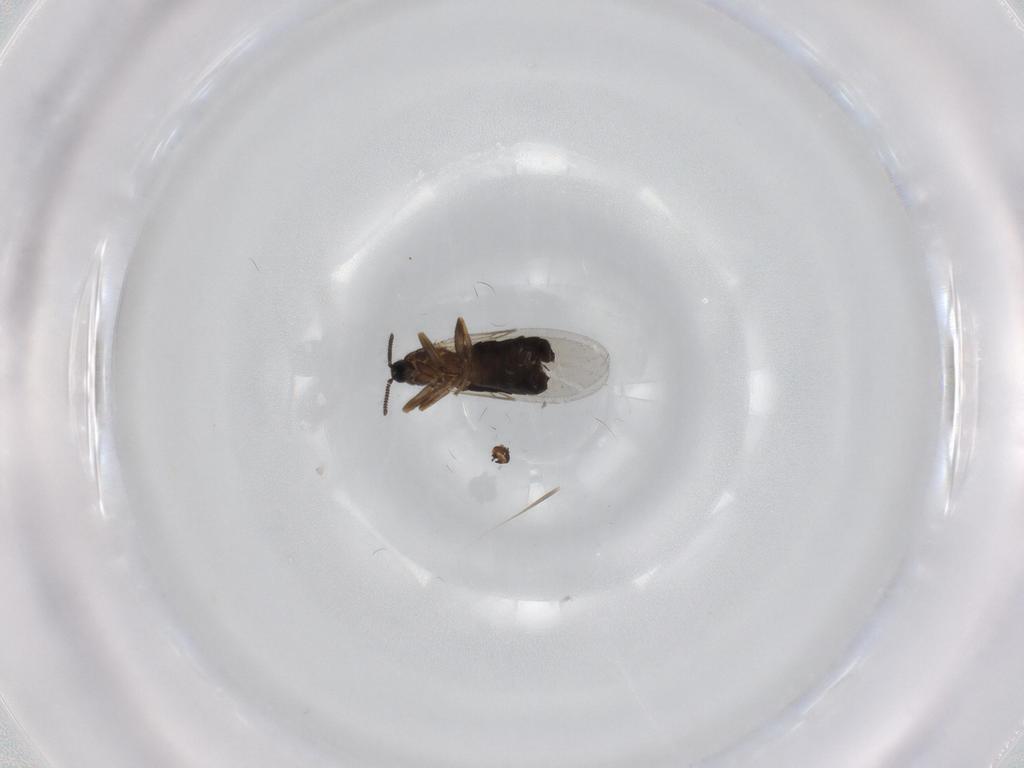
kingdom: Animalia
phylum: Arthropoda
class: Insecta
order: Diptera
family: Scatopsidae
